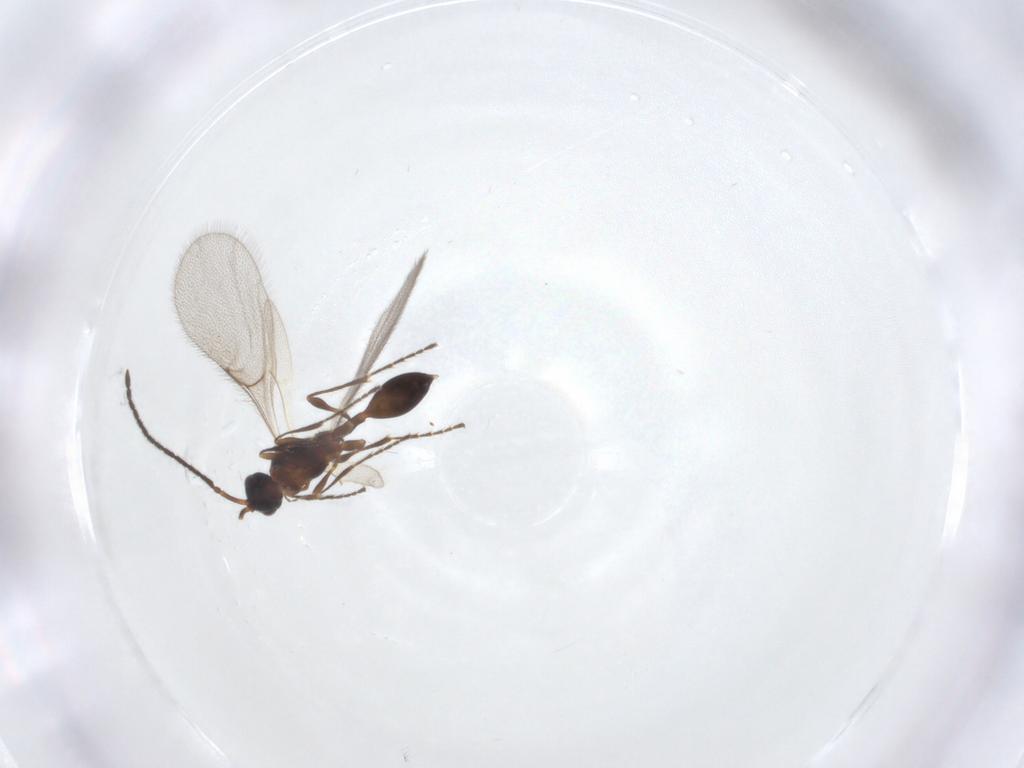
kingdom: Animalia
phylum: Arthropoda
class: Insecta
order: Hymenoptera
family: Diapriidae
